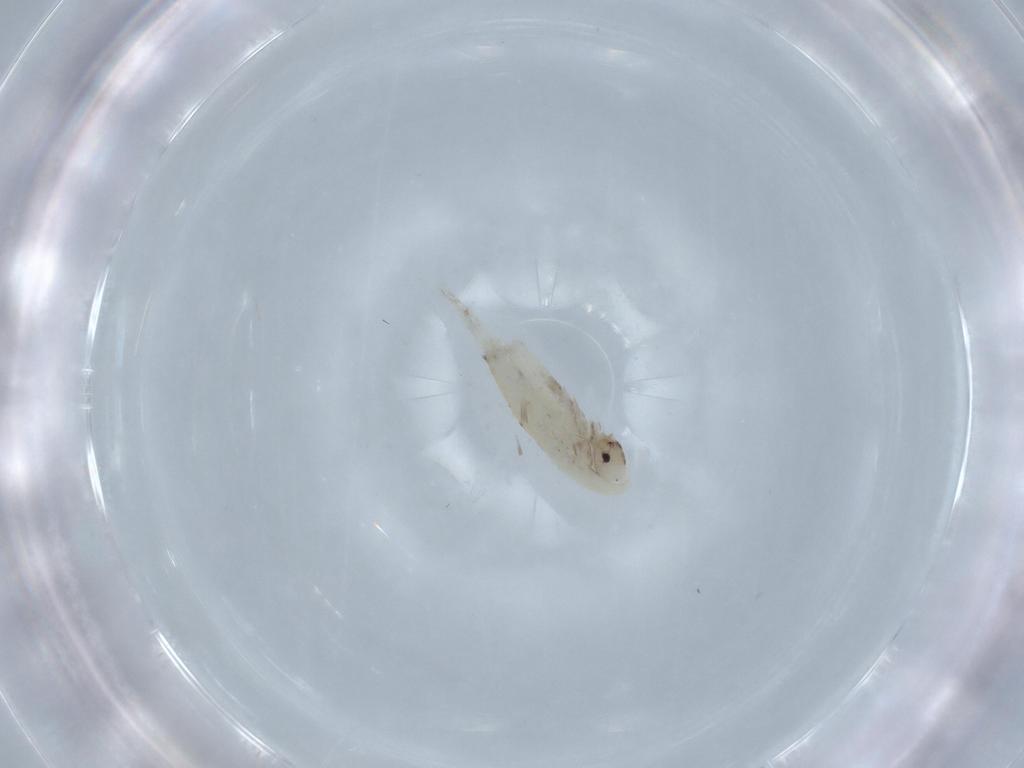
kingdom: Animalia
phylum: Arthropoda
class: Collembola
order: Entomobryomorpha
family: Entomobryidae
